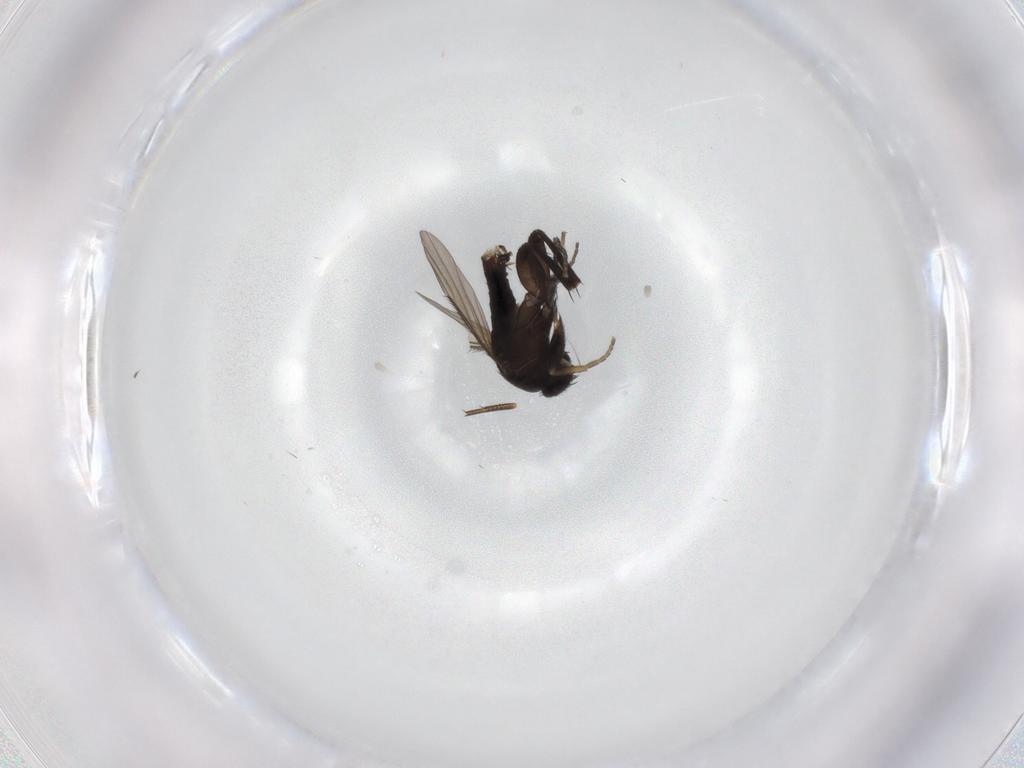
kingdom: Animalia
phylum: Arthropoda
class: Insecta
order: Diptera
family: Phoridae
